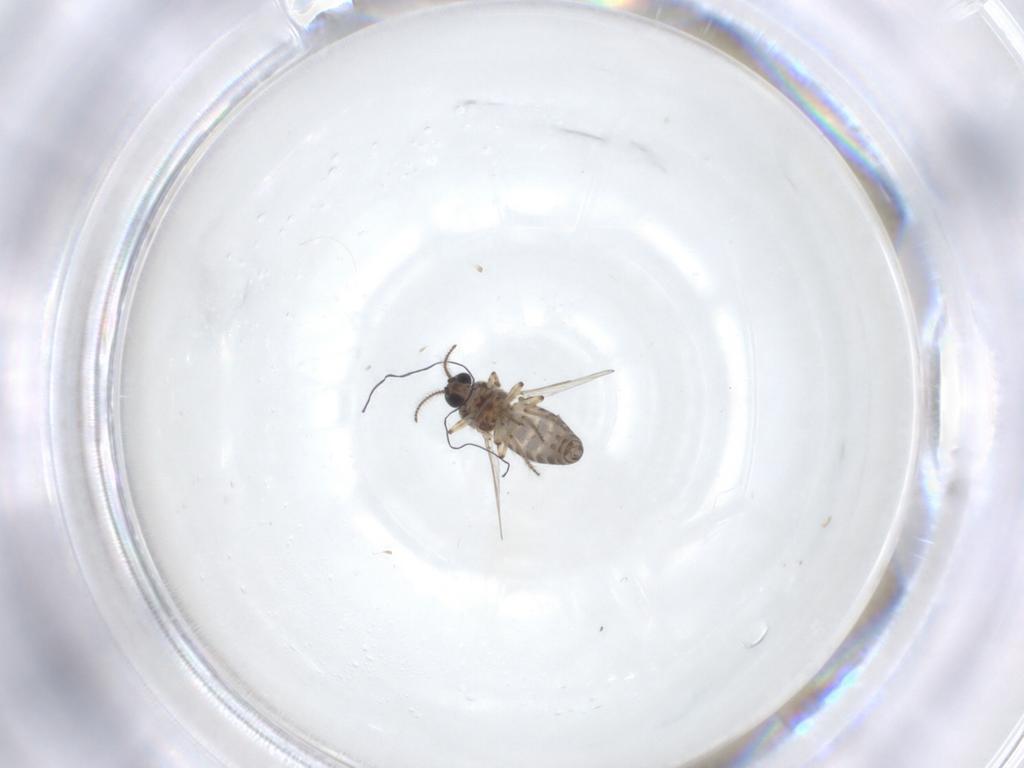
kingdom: Animalia
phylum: Arthropoda
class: Insecta
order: Diptera
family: Ceratopogonidae
